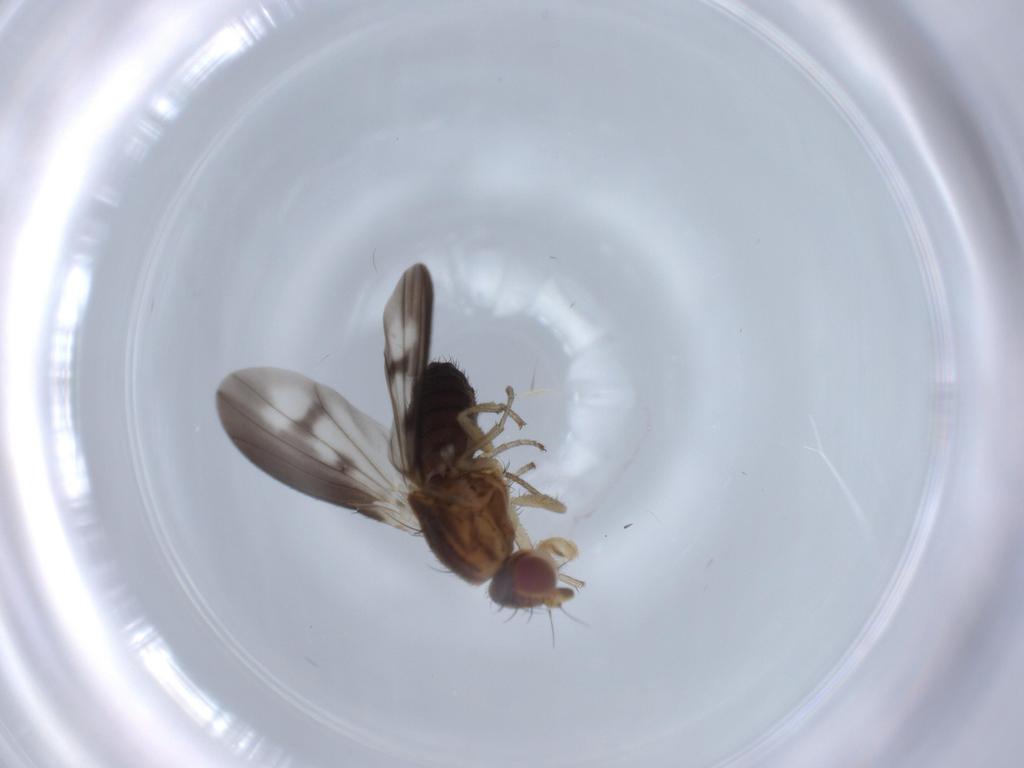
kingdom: Animalia
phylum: Arthropoda
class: Insecta
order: Diptera
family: Heleomyzidae
